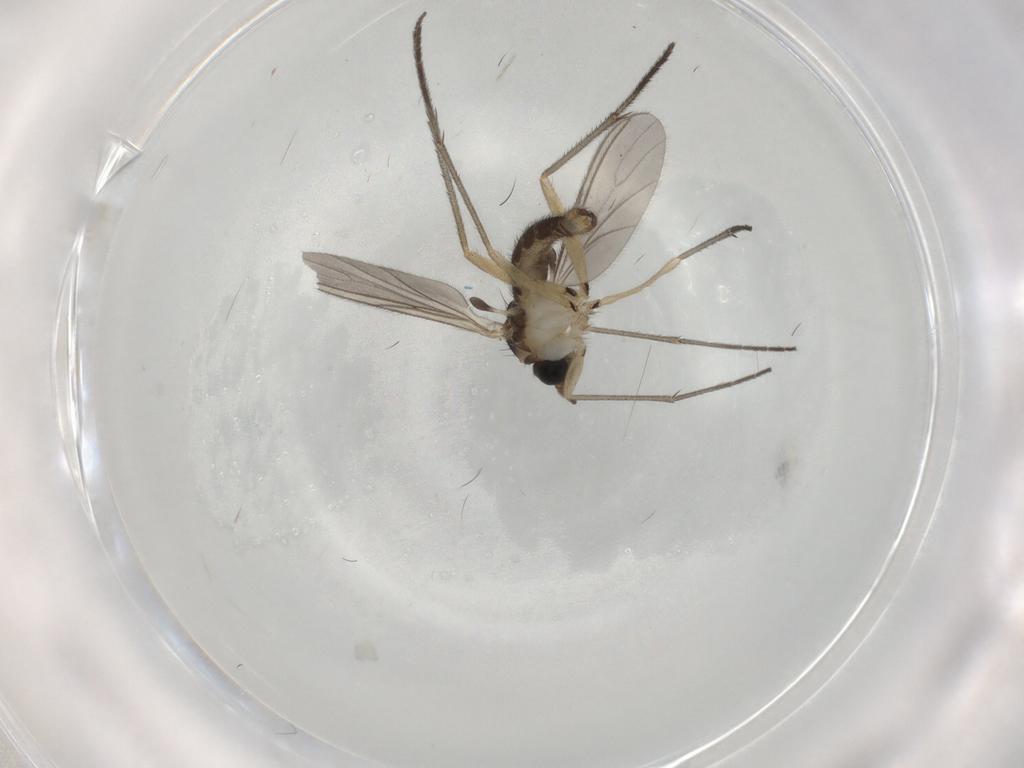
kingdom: Animalia
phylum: Arthropoda
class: Insecta
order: Diptera
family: Sciaridae
